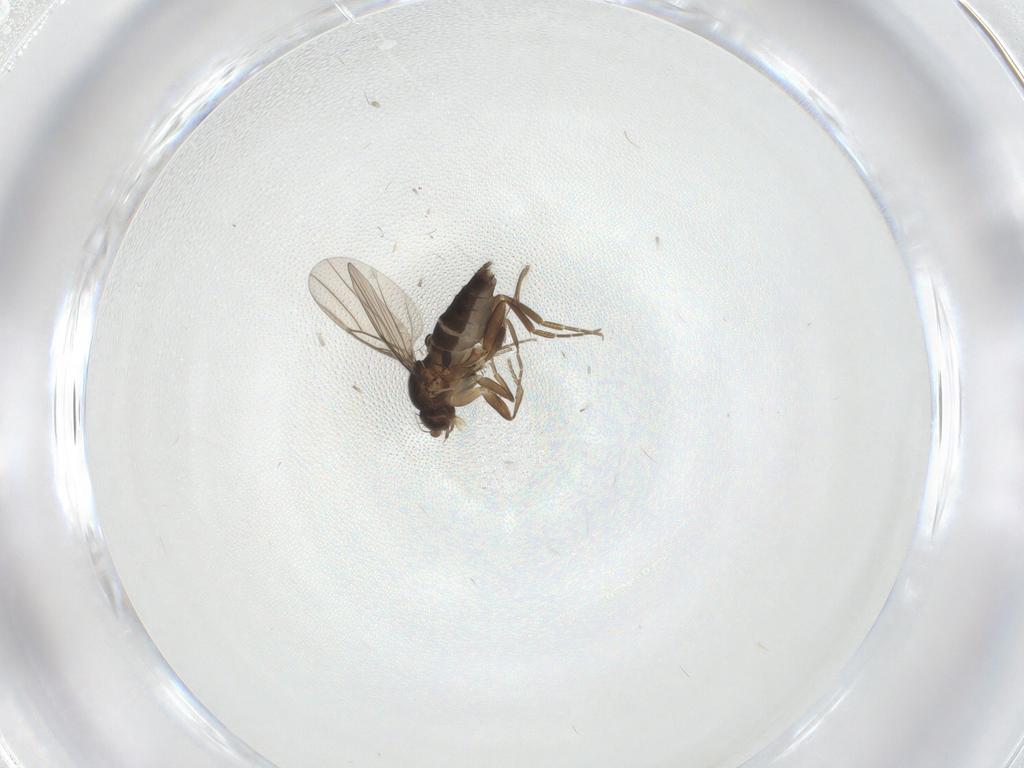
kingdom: Animalia
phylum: Arthropoda
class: Insecta
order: Diptera
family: Phoridae
